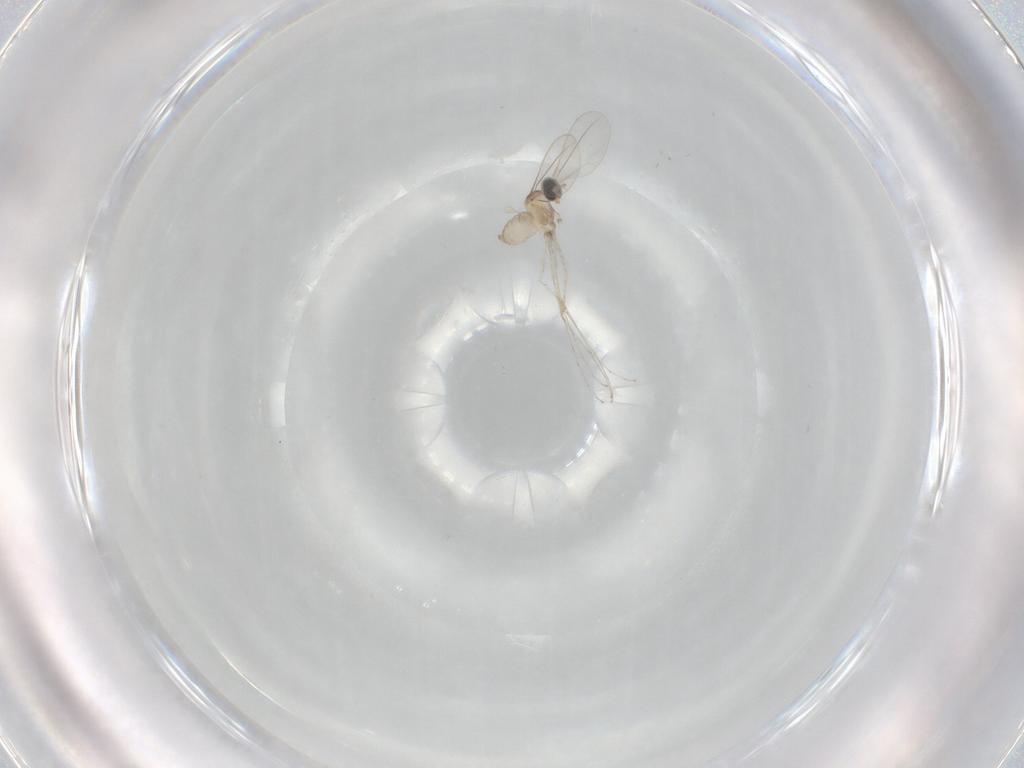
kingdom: Animalia
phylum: Arthropoda
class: Insecta
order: Diptera
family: Cecidomyiidae
